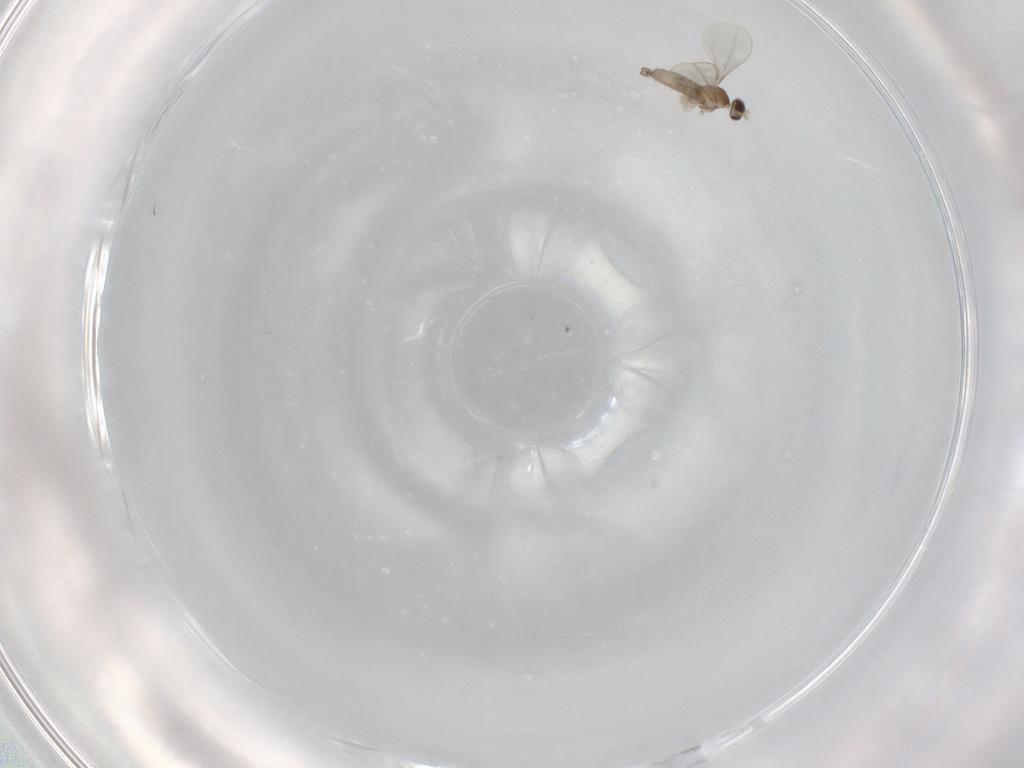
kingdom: Animalia
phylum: Arthropoda
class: Insecta
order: Diptera
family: Cecidomyiidae
